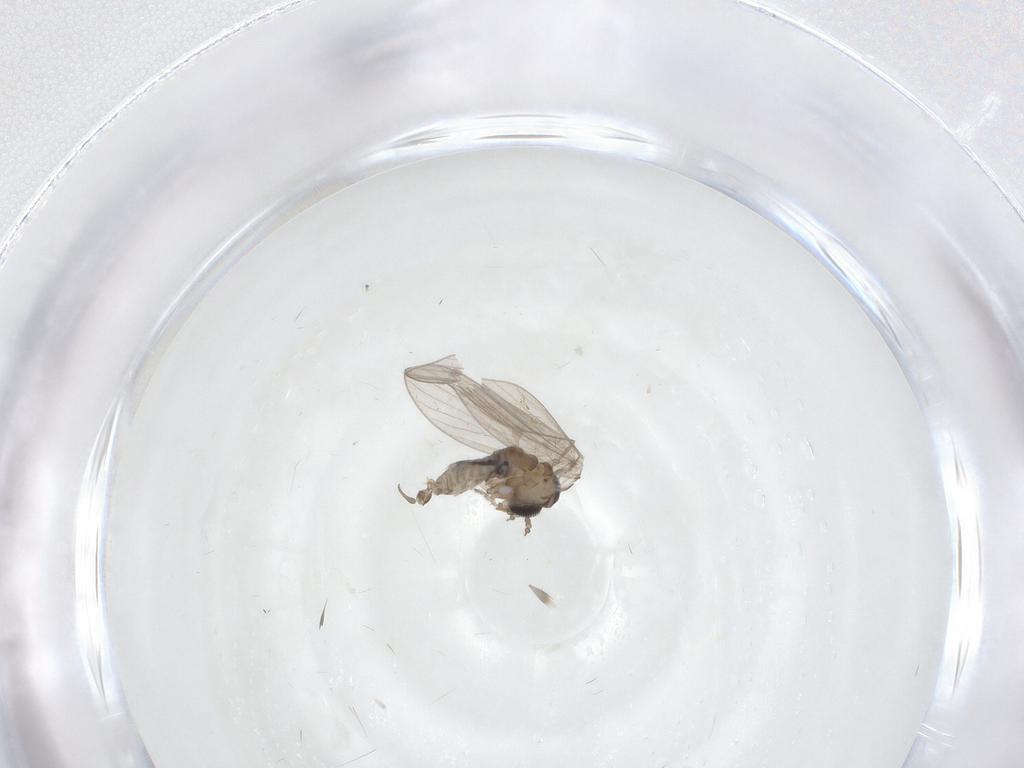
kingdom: Animalia
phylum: Arthropoda
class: Insecta
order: Diptera
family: Psychodidae
